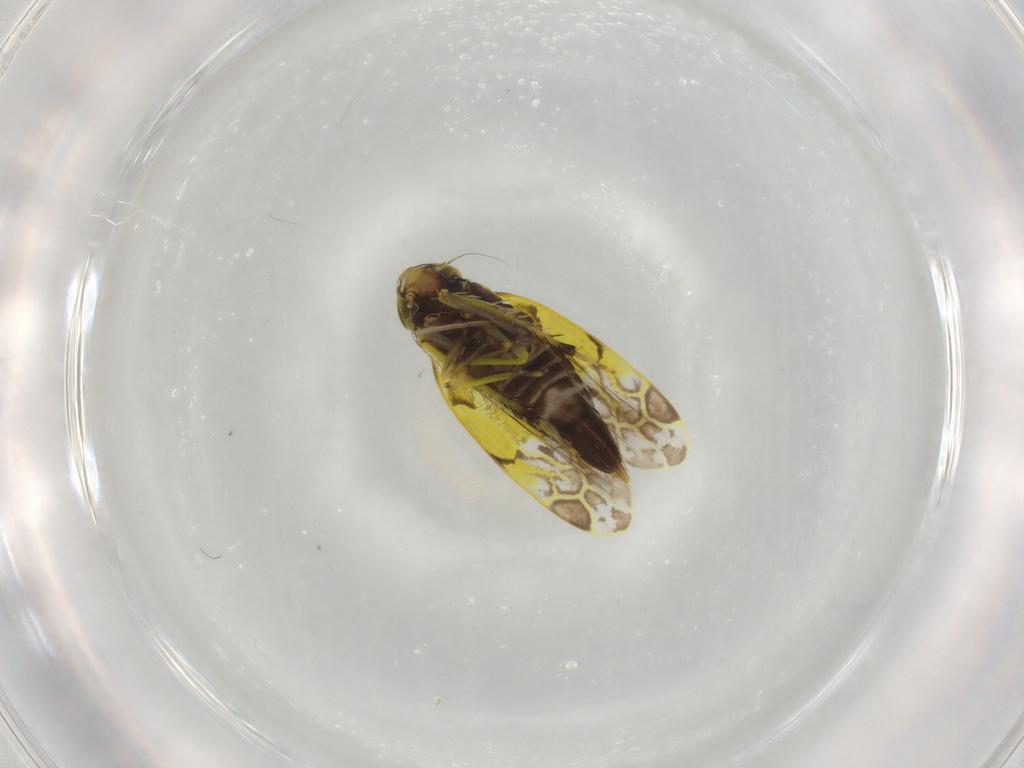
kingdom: Animalia
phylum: Arthropoda
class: Insecta
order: Hemiptera
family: Cicadellidae
